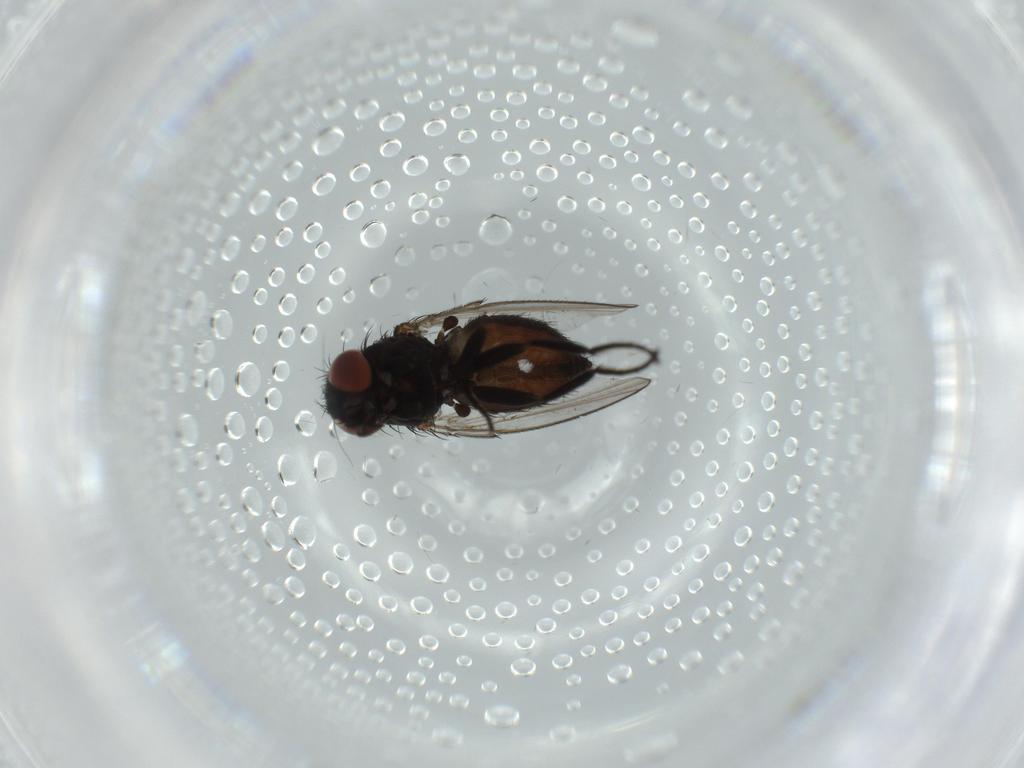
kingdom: Animalia
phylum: Arthropoda
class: Insecta
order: Diptera
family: Milichiidae
